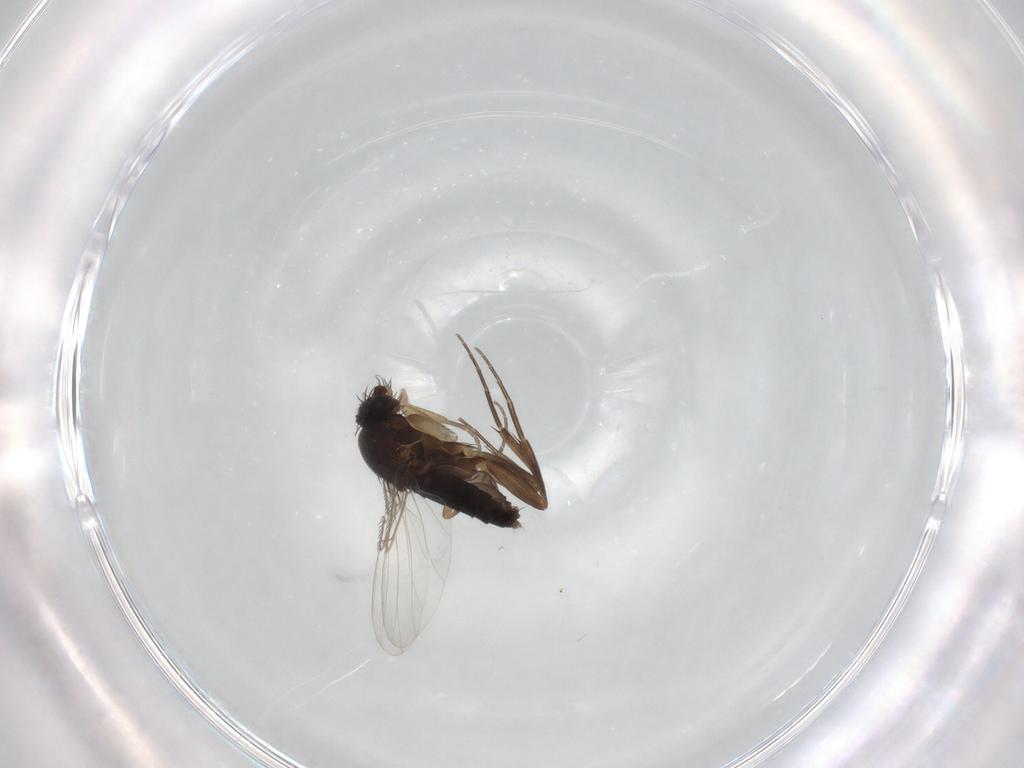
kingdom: Animalia
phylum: Arthropoda
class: Insecta
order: Diptera
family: Phoridae
